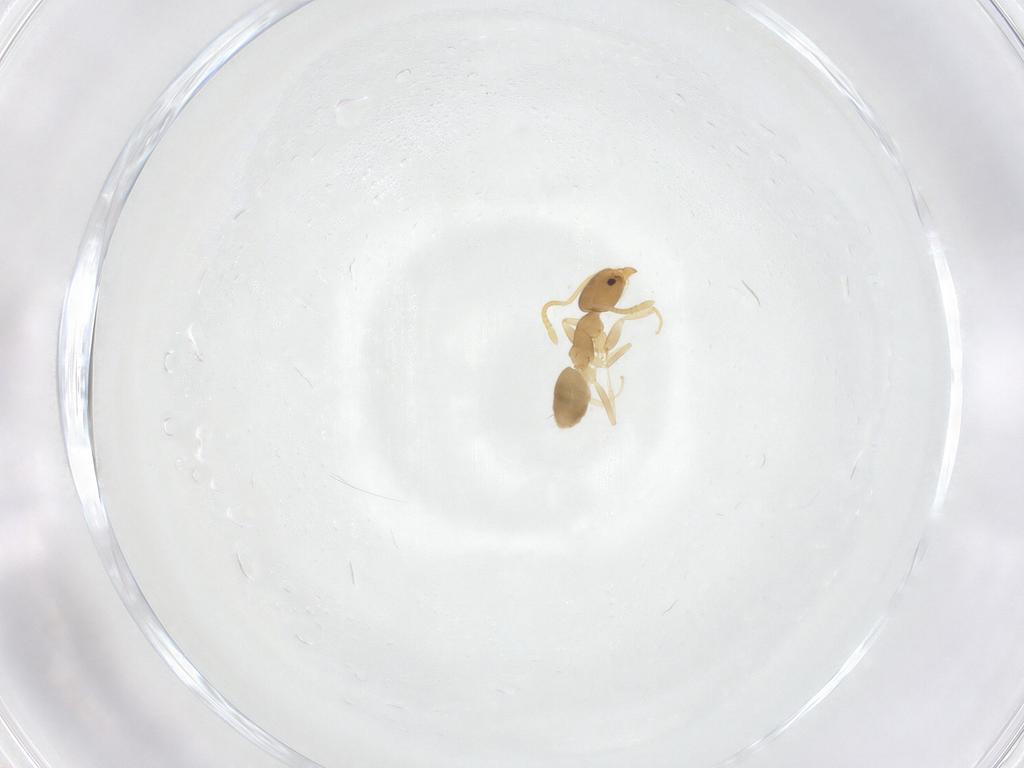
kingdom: Animalia
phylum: Arthropoda
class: Insecta
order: Hymenoptera
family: Formicidae
